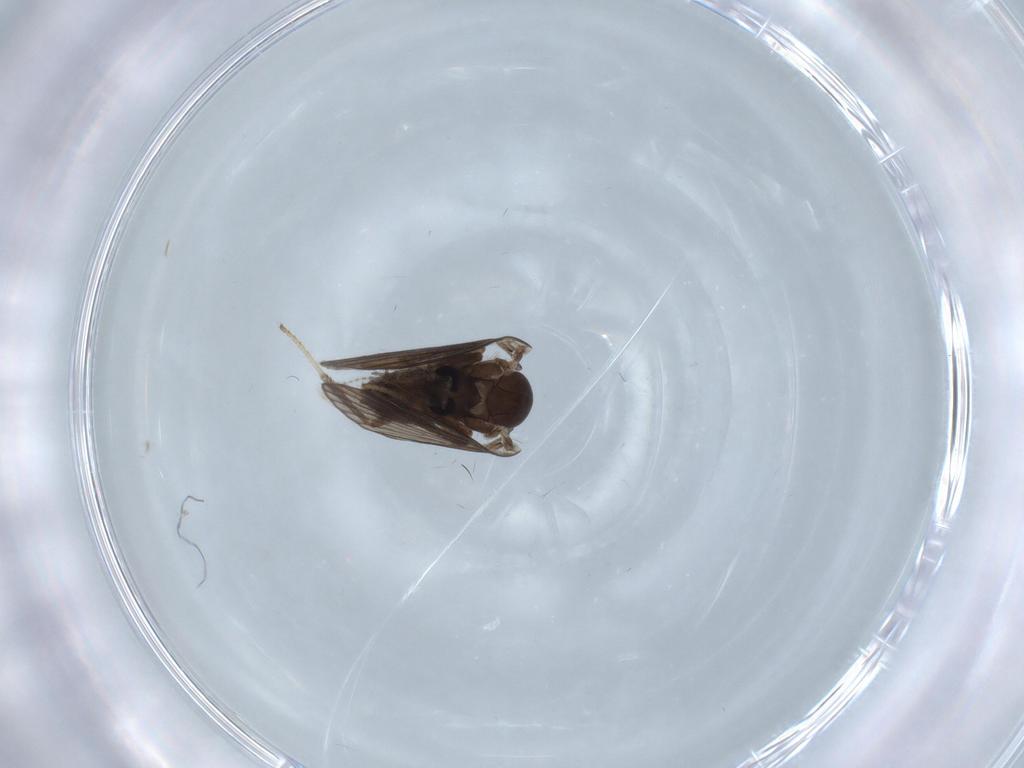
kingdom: Animalia
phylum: Arthropoda
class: Insecta
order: Diptera
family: Psychodidae
